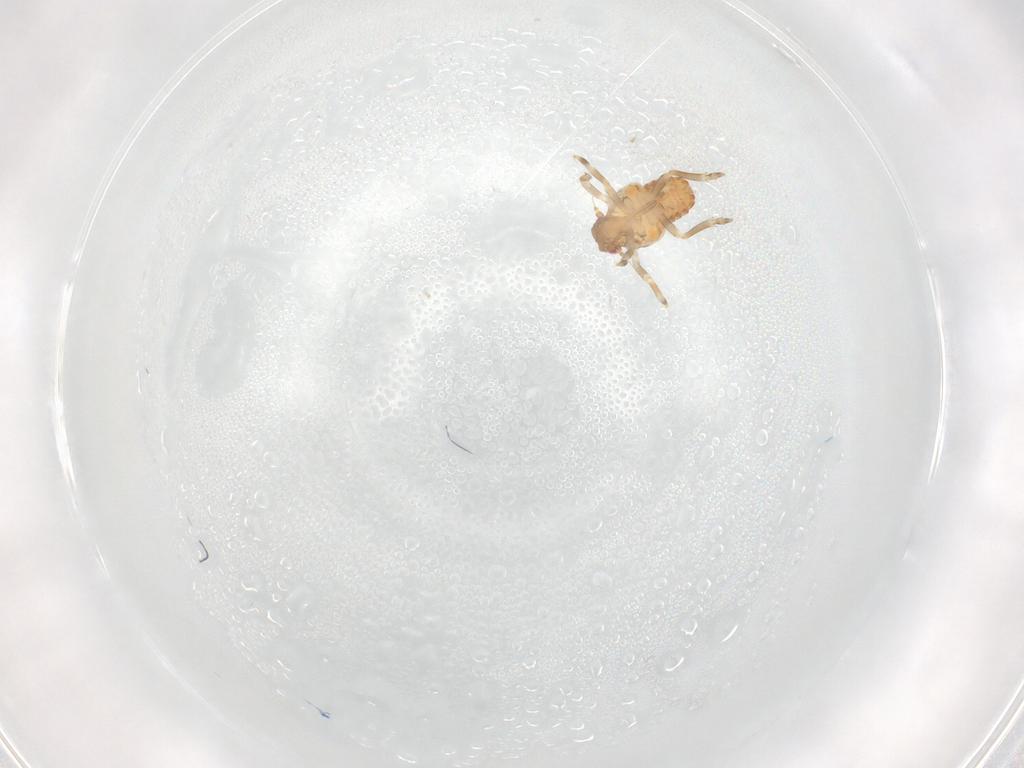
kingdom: Animalia
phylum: Arthropoda
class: Insecta
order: Hemiptera
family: Flatidae
